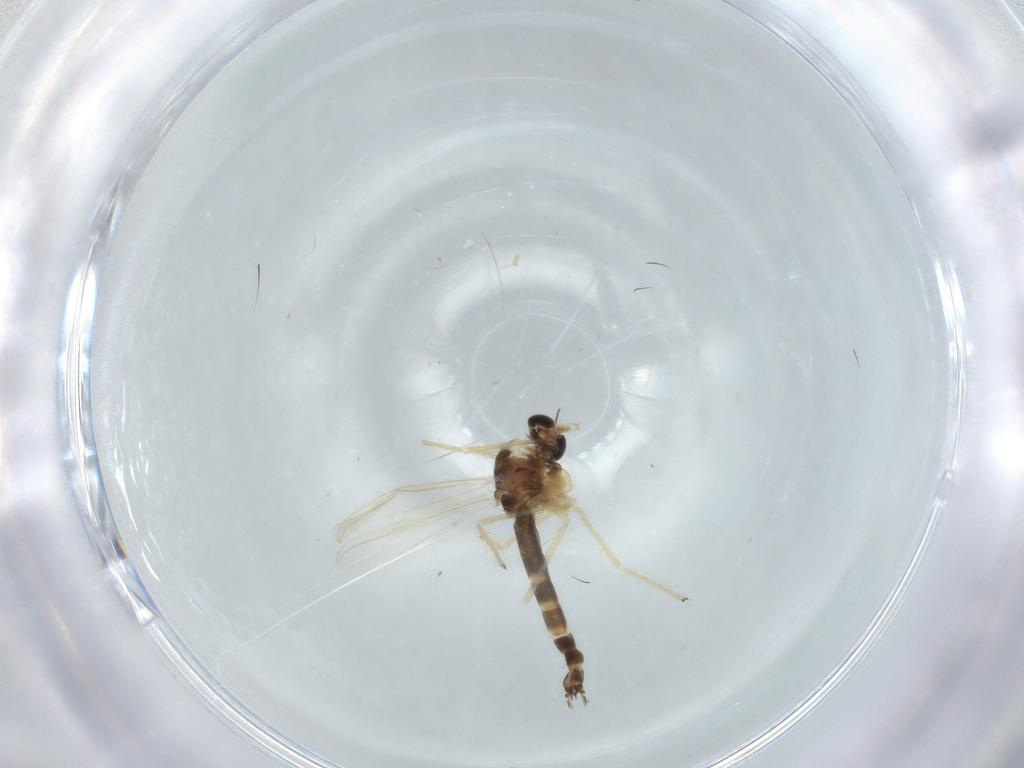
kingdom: Animalia
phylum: Arthropoda
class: Insecta
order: Diptera
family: Chironomidae
